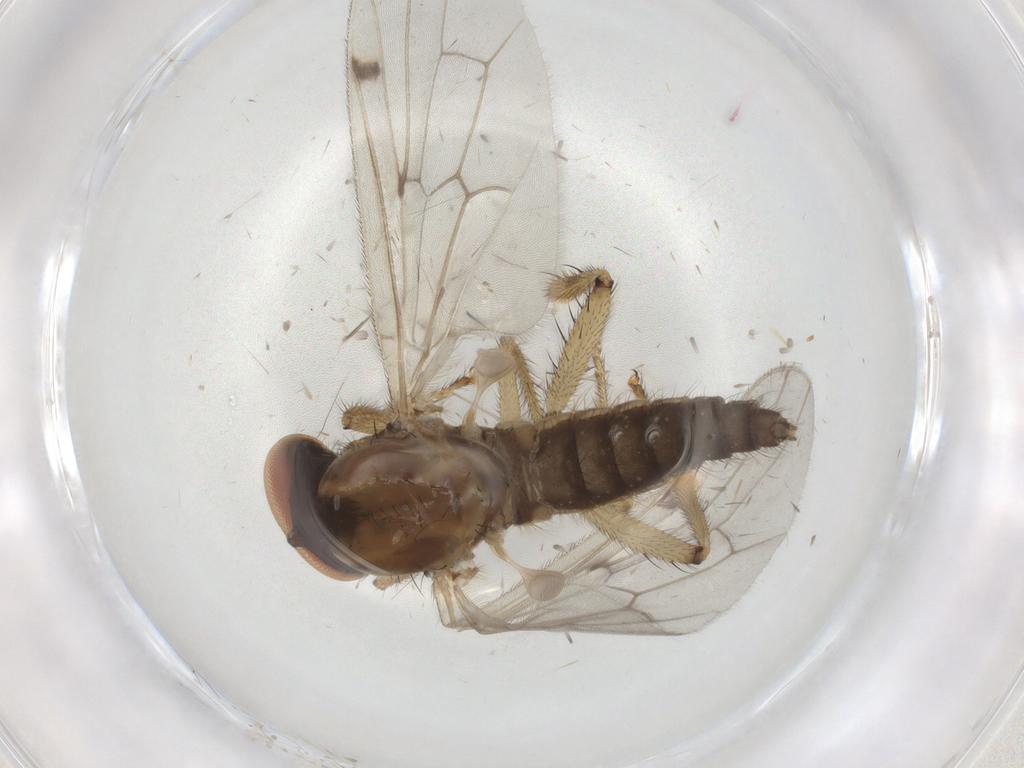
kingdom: Animalia
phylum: Arthropoda
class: Insecta
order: Diptera
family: Hybotidae
